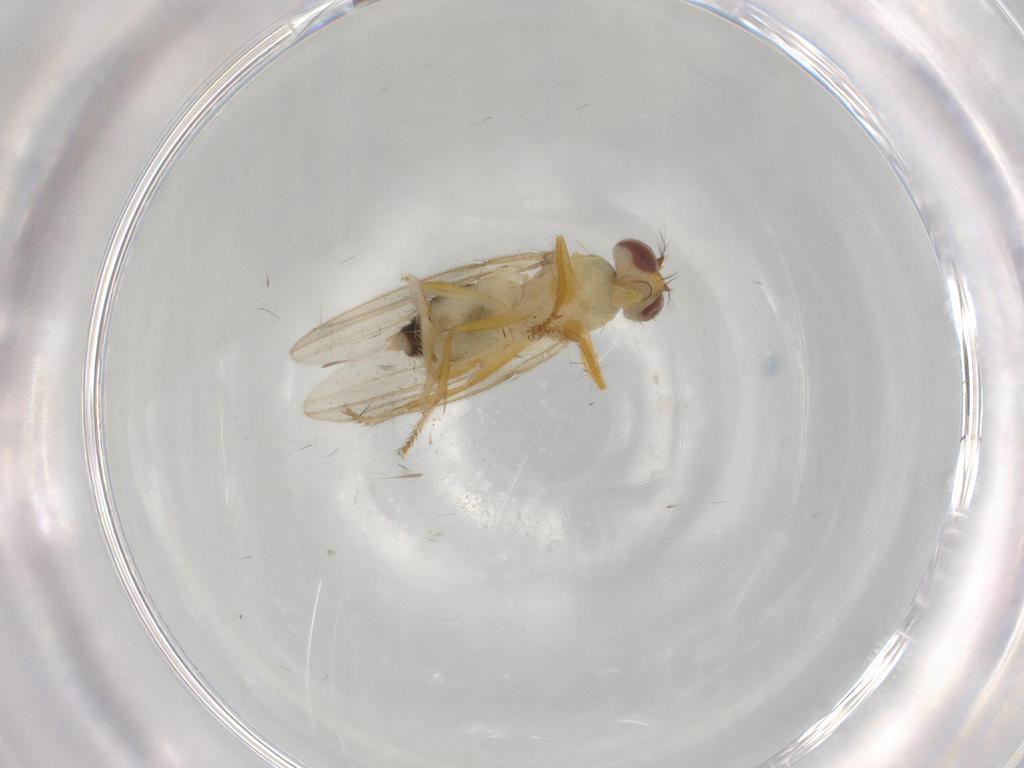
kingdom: Animalia
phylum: Arthropoda
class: Insecta
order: Diptera
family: Periscelididae
